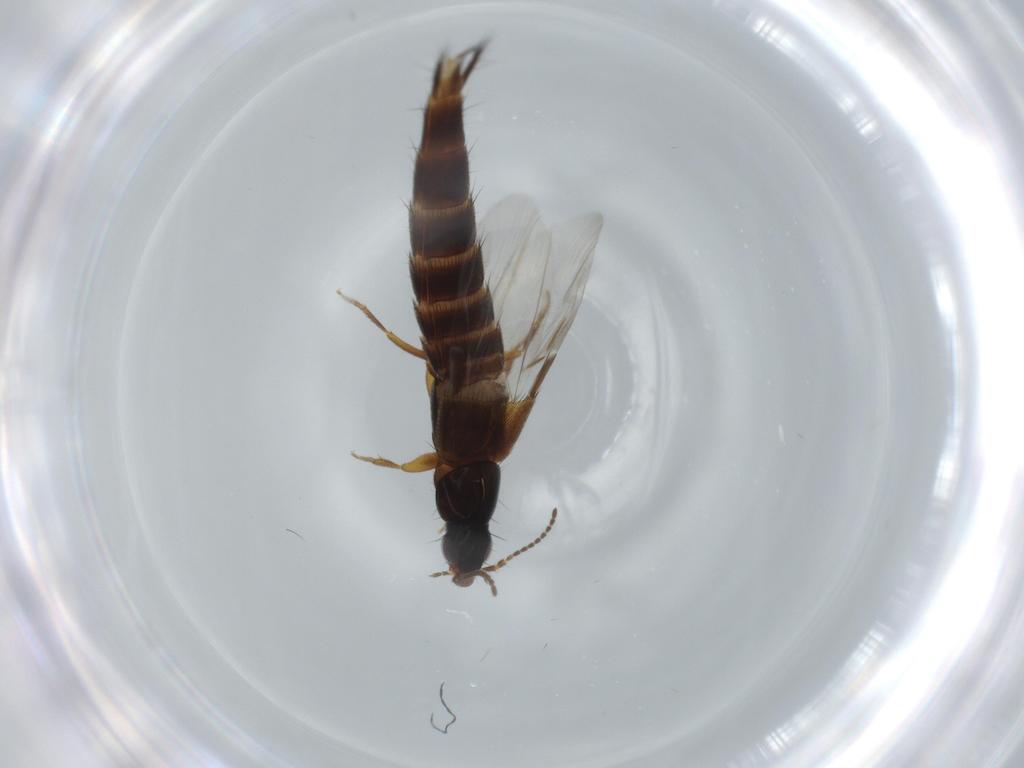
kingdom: Animalia
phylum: Arthropoda
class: Insecta
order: Coleoptera
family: Staphylinidae
